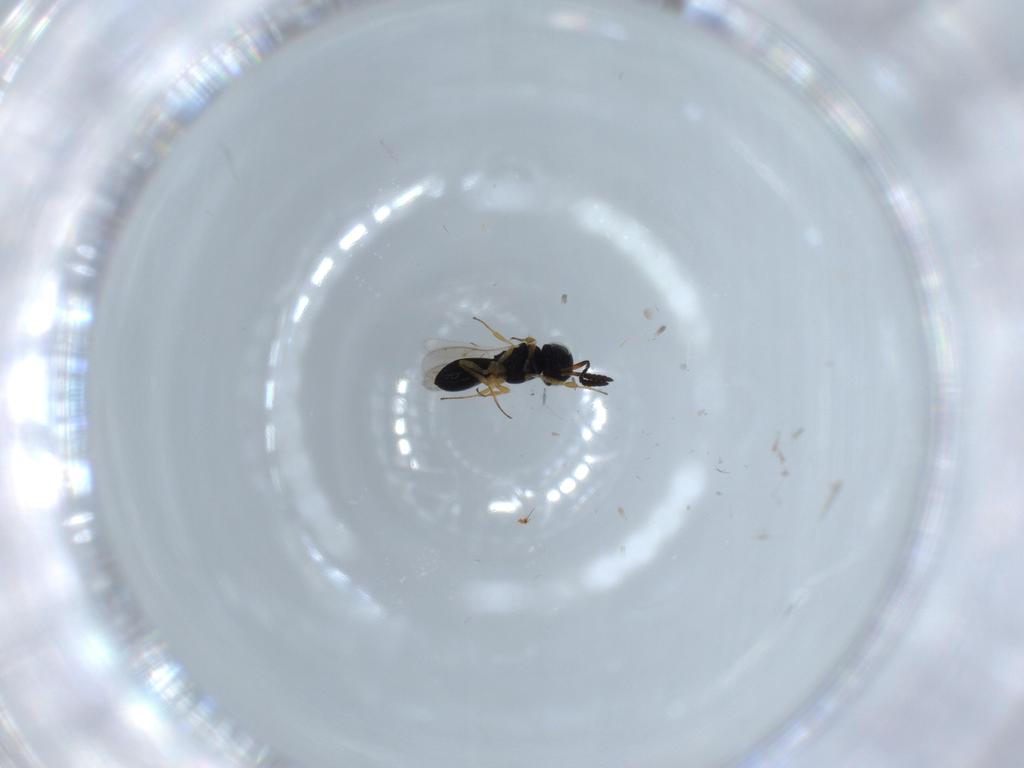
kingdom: Animalia
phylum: Arthropoda
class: Insecta
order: Hymenoptera
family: Scelionidae
